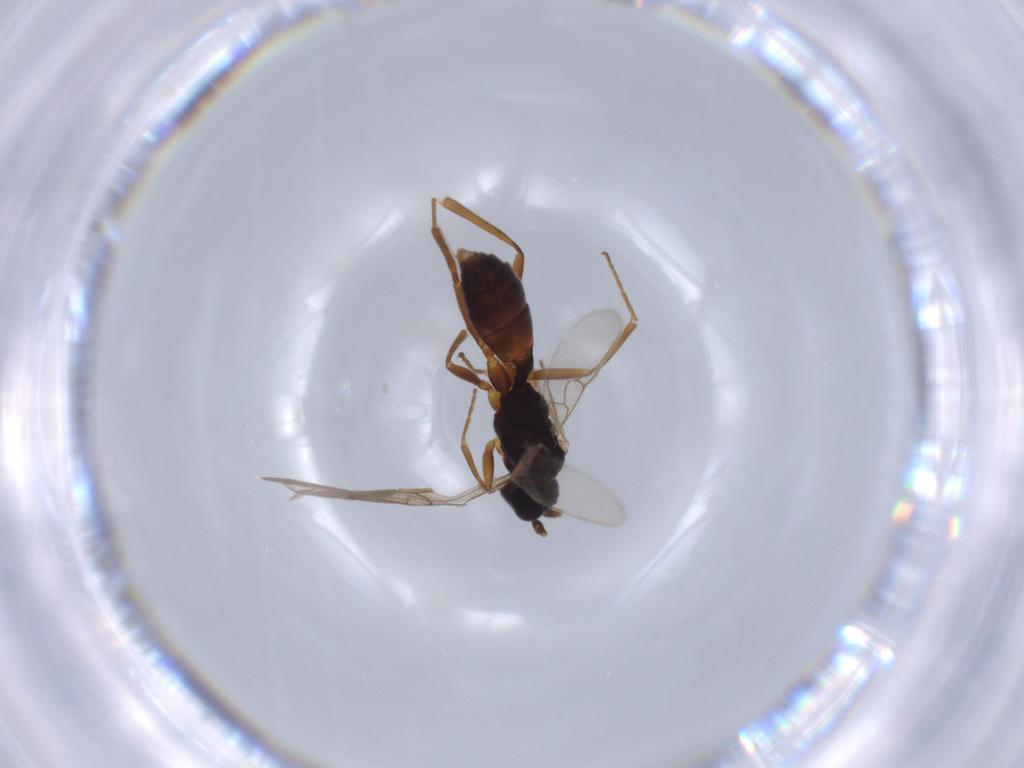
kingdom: Animalia
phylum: Arthropoda
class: Insecta
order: Hymenoptera
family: Ichneumonidae
